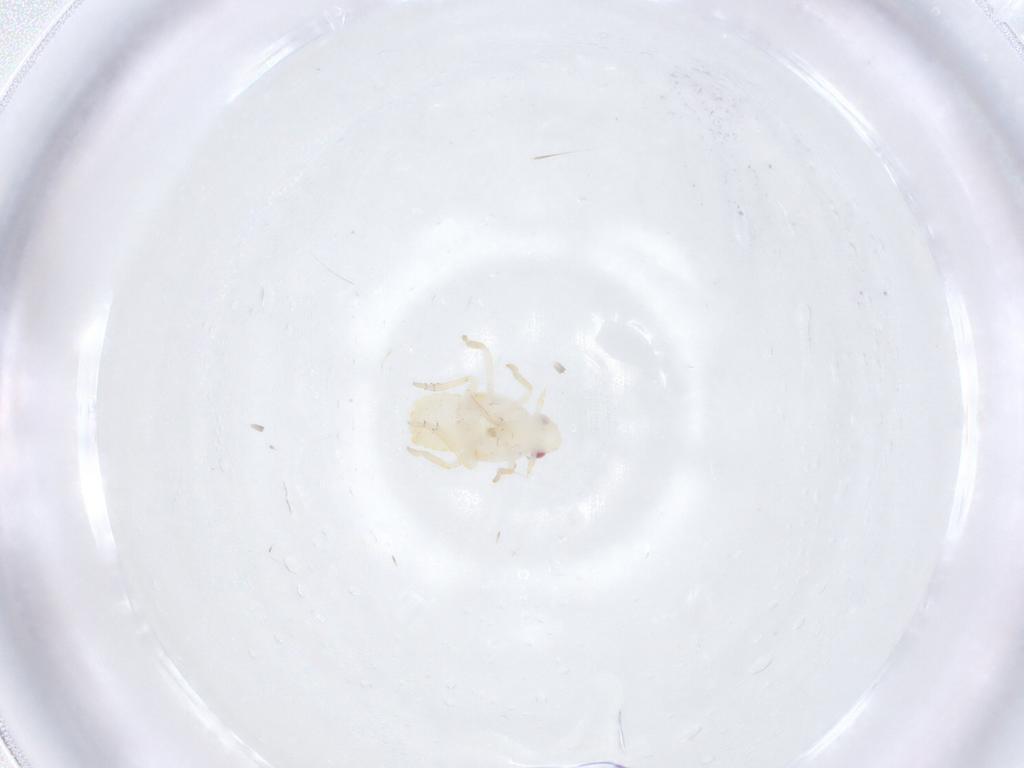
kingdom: Animalia
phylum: Arthropoda
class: Insecta
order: Hemiptera
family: Flatidae
